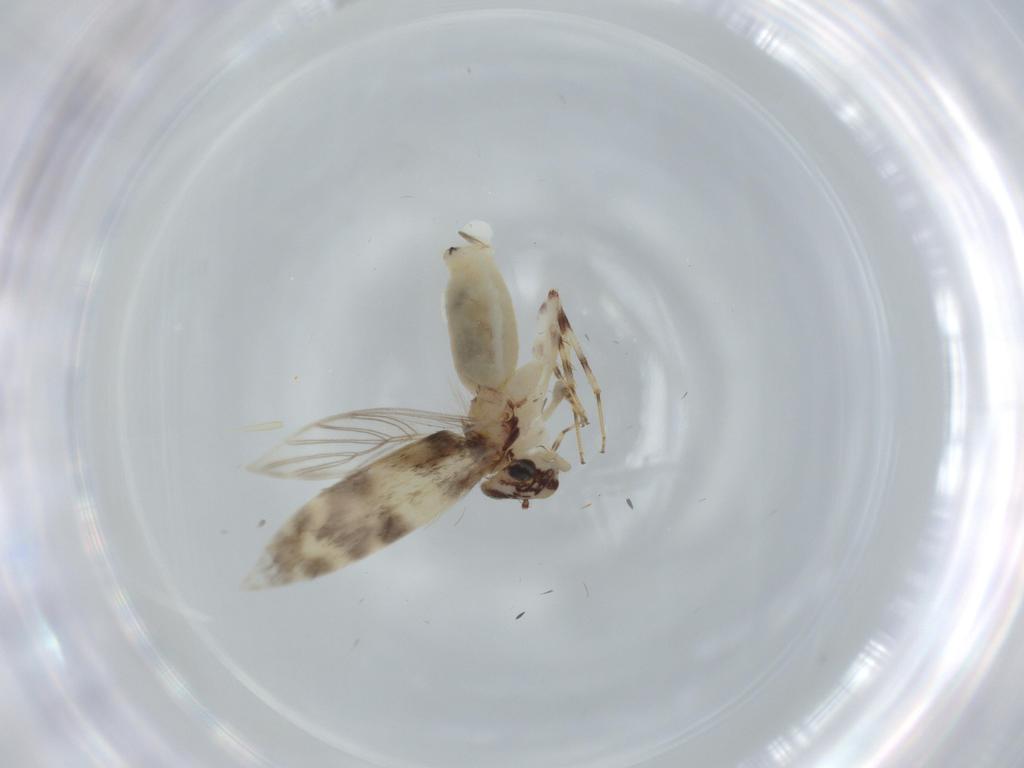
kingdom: Animalia
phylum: Arthropoda
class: Insecta
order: Psocodea
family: Lepidopsocidae
